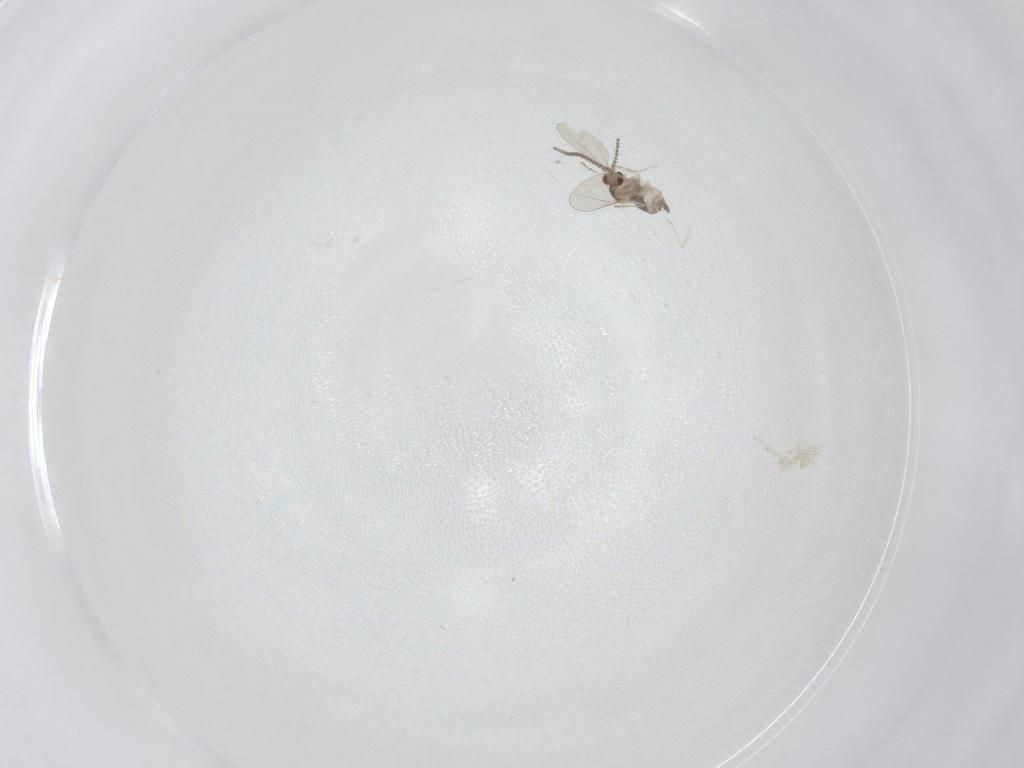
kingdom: Animalia
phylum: Arthropoda
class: Insecta
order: Diptera
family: Cecidomyiidae
